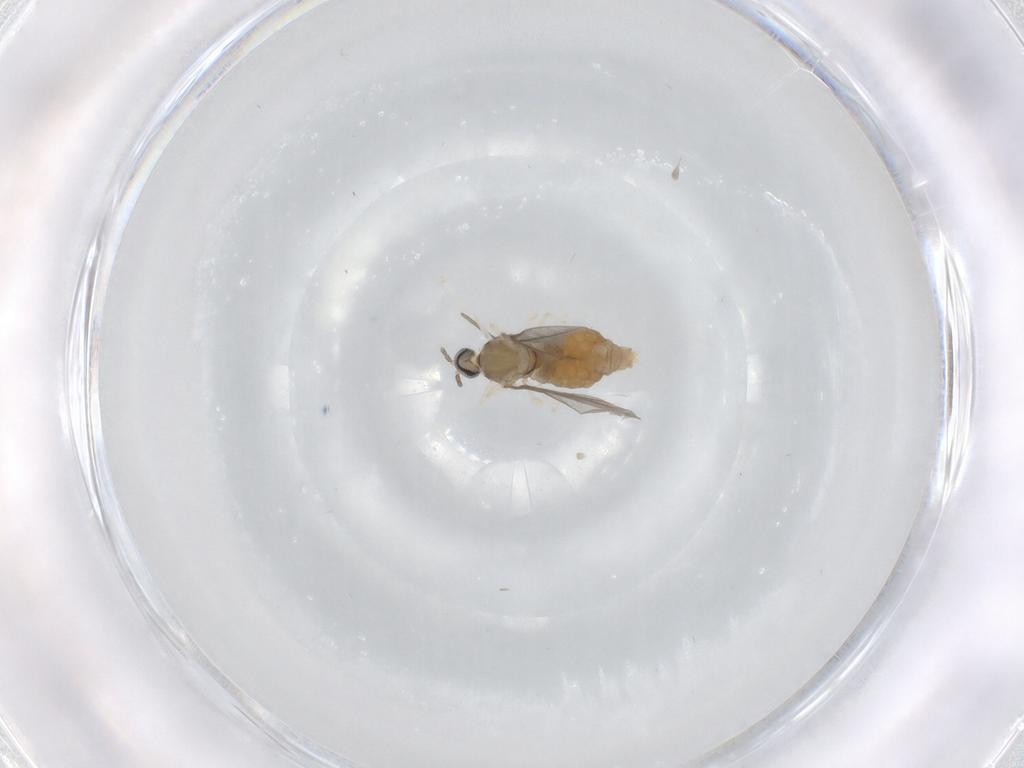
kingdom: Animalia
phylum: Arthropoda
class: Insecta
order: Diptera
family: Cecidomyiidae
